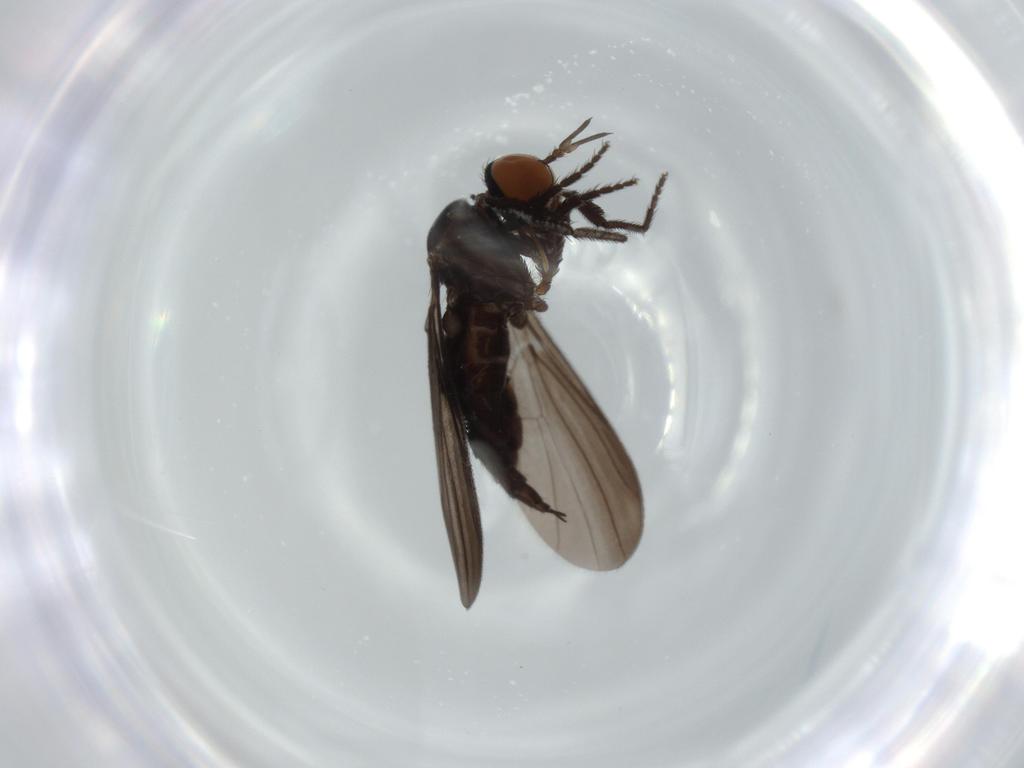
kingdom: Animalia
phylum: Arthropoda
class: Insecta
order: Diptera
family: Empididae
